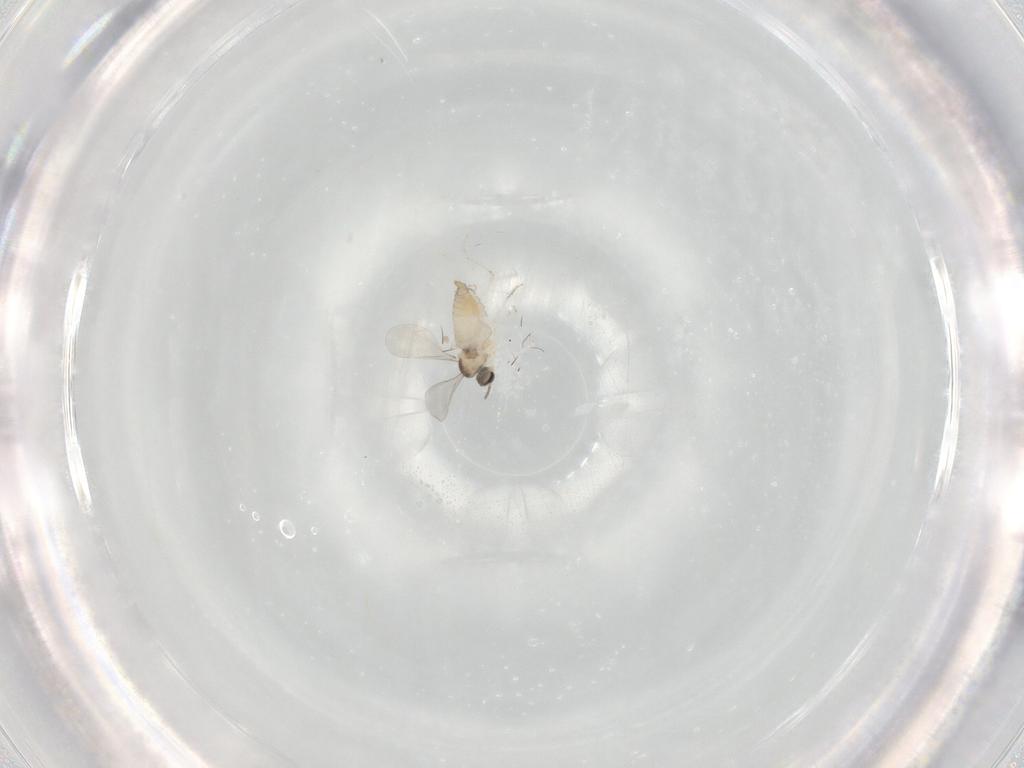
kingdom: Animalia
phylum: Arthropoda
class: Insecta
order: Diptera
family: Cecidomyiidae
